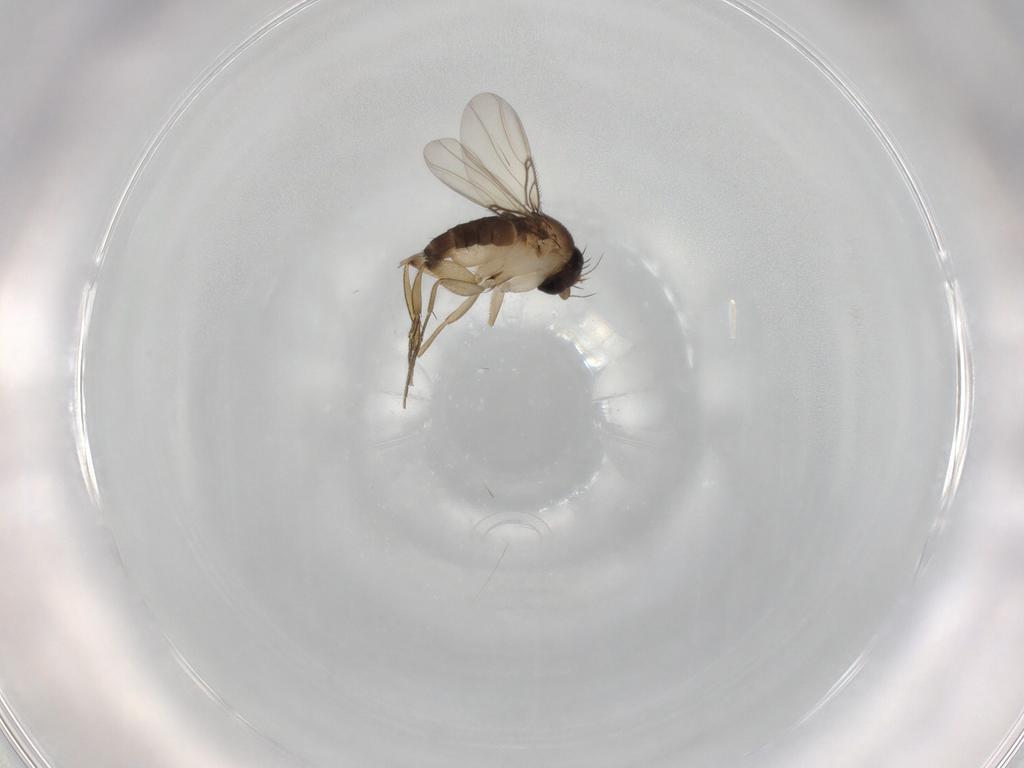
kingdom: Animalia
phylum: Arthropoda
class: Insecta
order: Diptera
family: Phoridae
